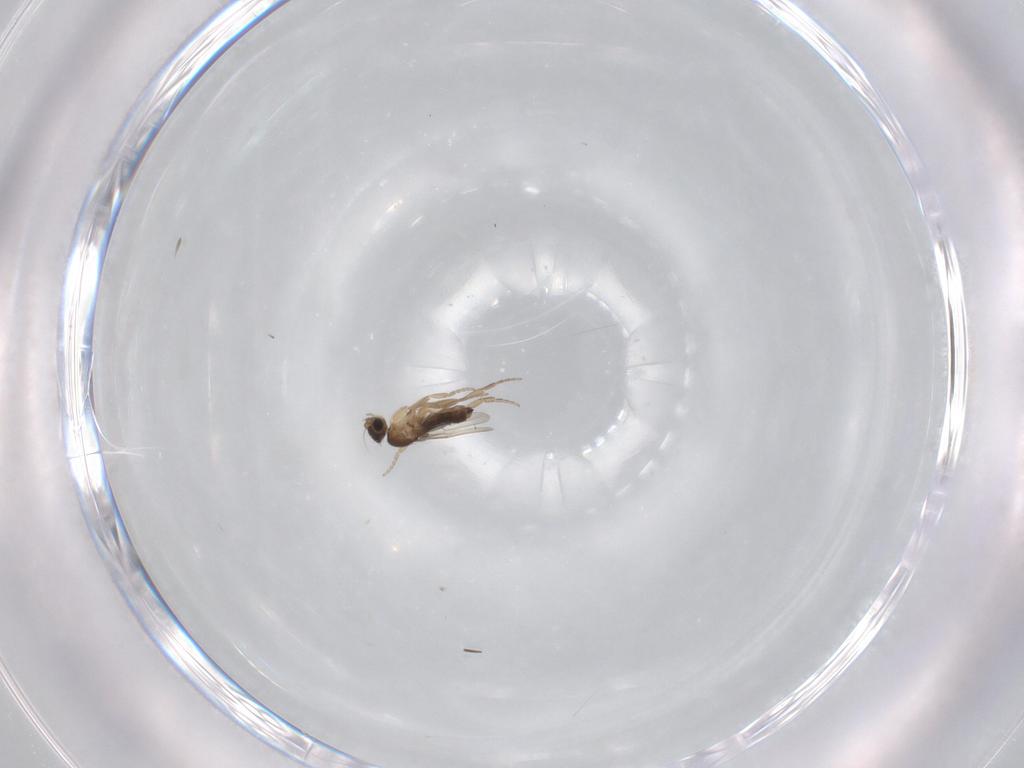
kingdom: Animalia
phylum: Arthropoda
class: Insecta
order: Diptera
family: Phoridae
